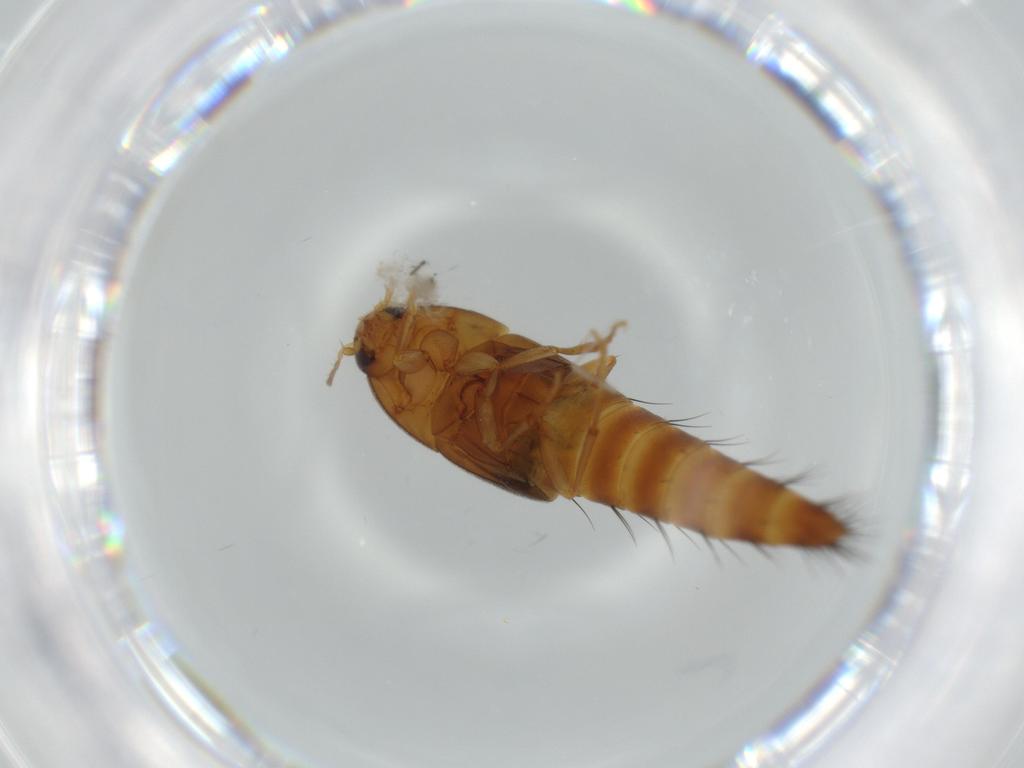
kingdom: Animalia
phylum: Arthropoda
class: Insecta
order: Coleoptera
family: Staphylinidae
